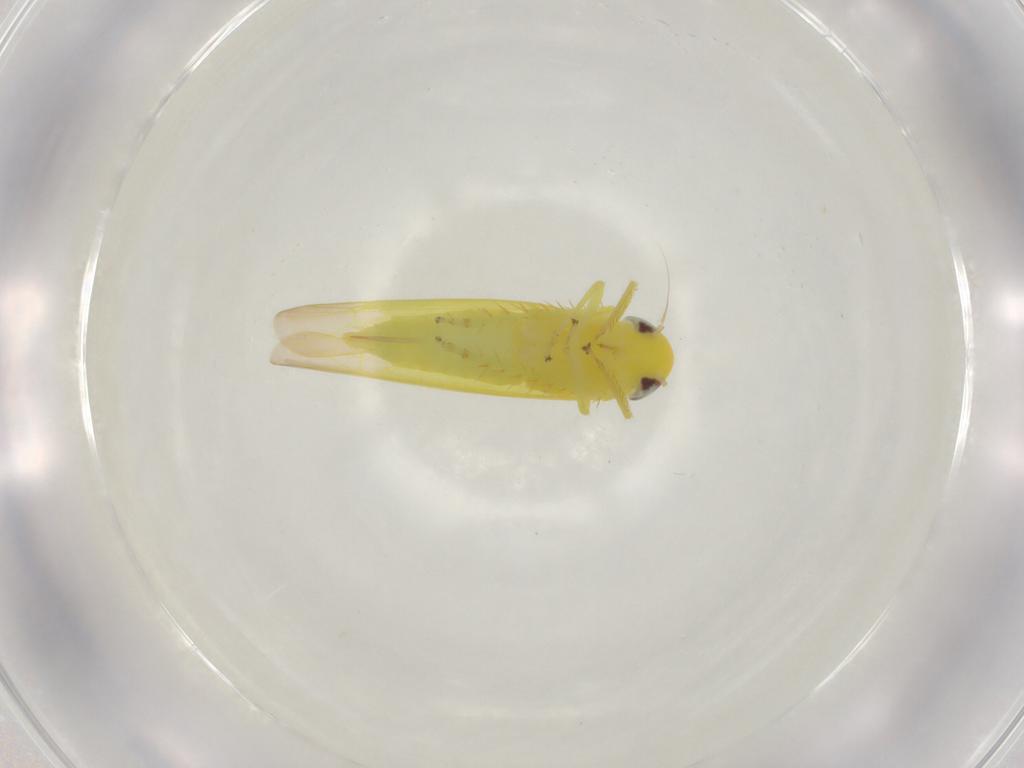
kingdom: Animalia
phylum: Arthropoda
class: Insecta
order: Hemiptera
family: Cicadellidae
